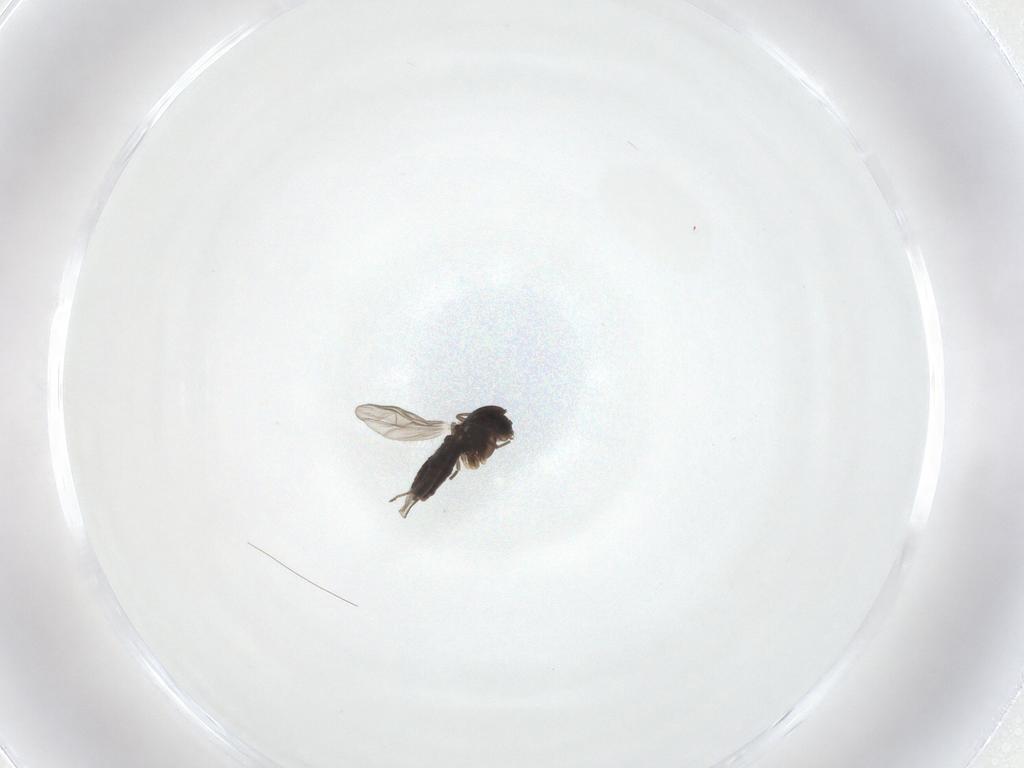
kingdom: Animalia
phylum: Arthropoda
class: Insecta
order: Diptera
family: Chironomidae
